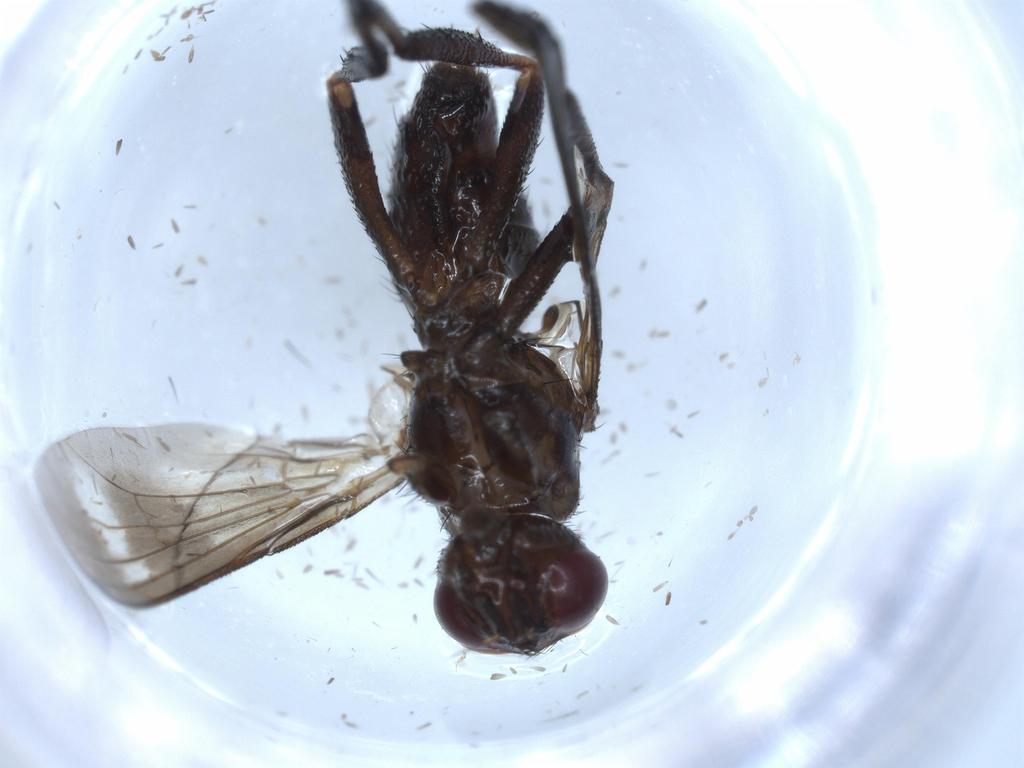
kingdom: Animalia
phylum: Arthropoda
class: Insecta
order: Diptera
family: Calliphoridae
